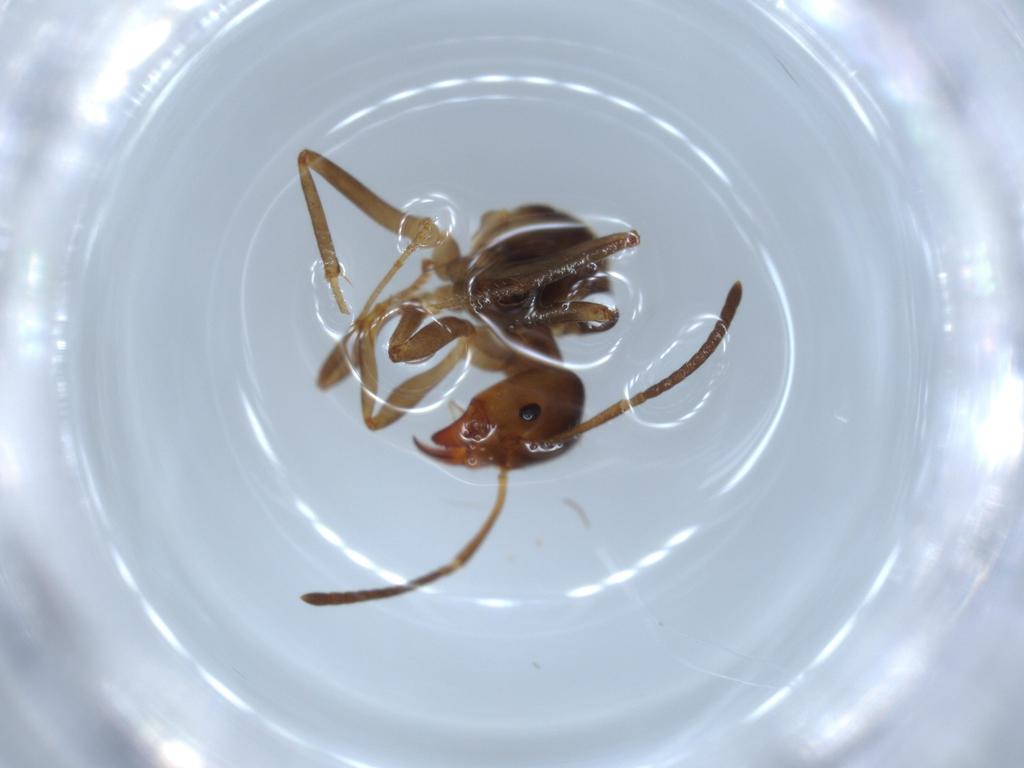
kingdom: Animalia
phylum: Arthropoda
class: Insecta
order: Hymenoptera
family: Formicidae
